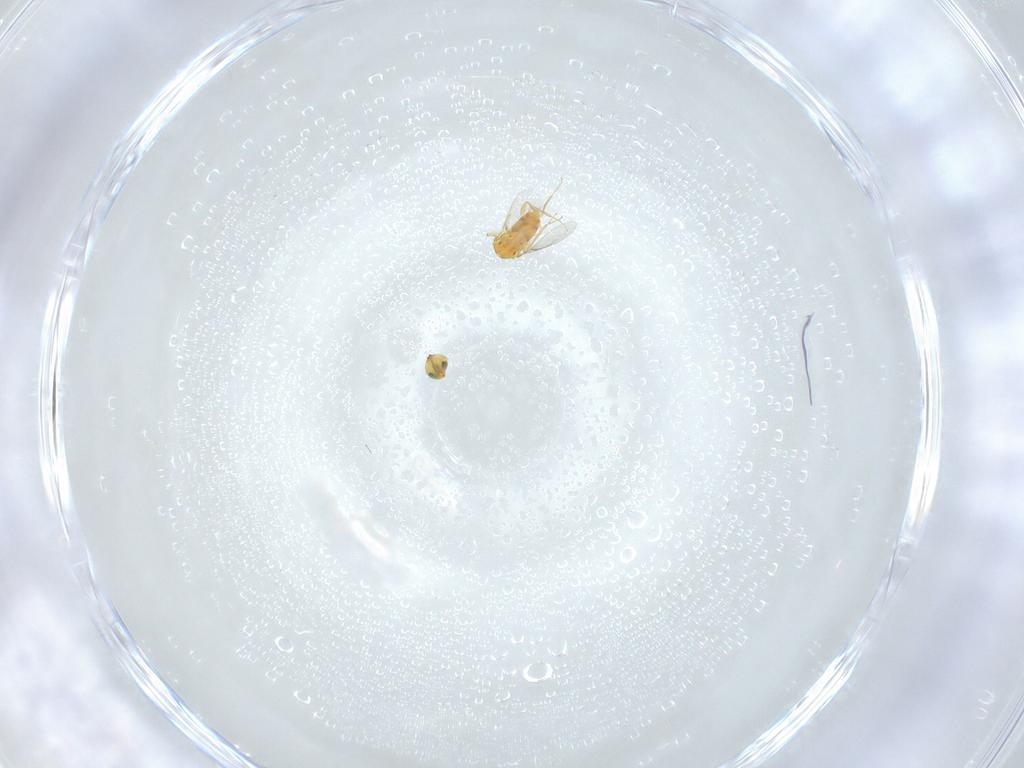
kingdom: Animalia
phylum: Arthropoda
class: Insecta
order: Hymenoptera
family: Aphelinidae
